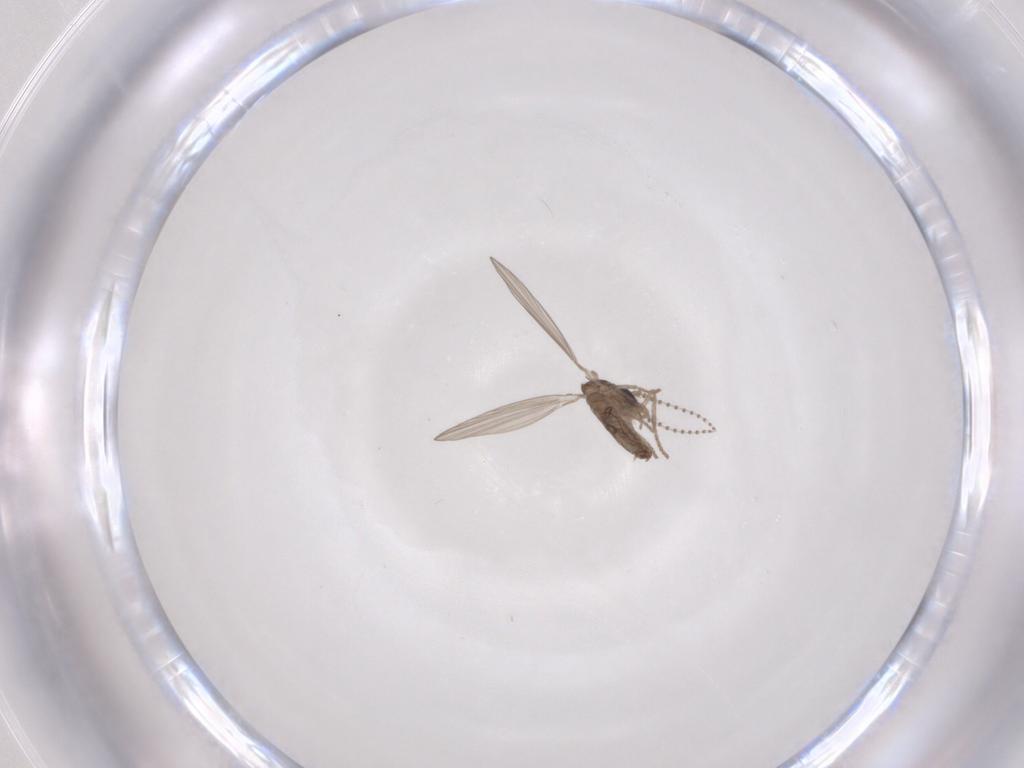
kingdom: Animalia
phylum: Arthropoda
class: Insecta
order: Diptera
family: Psychodidae
